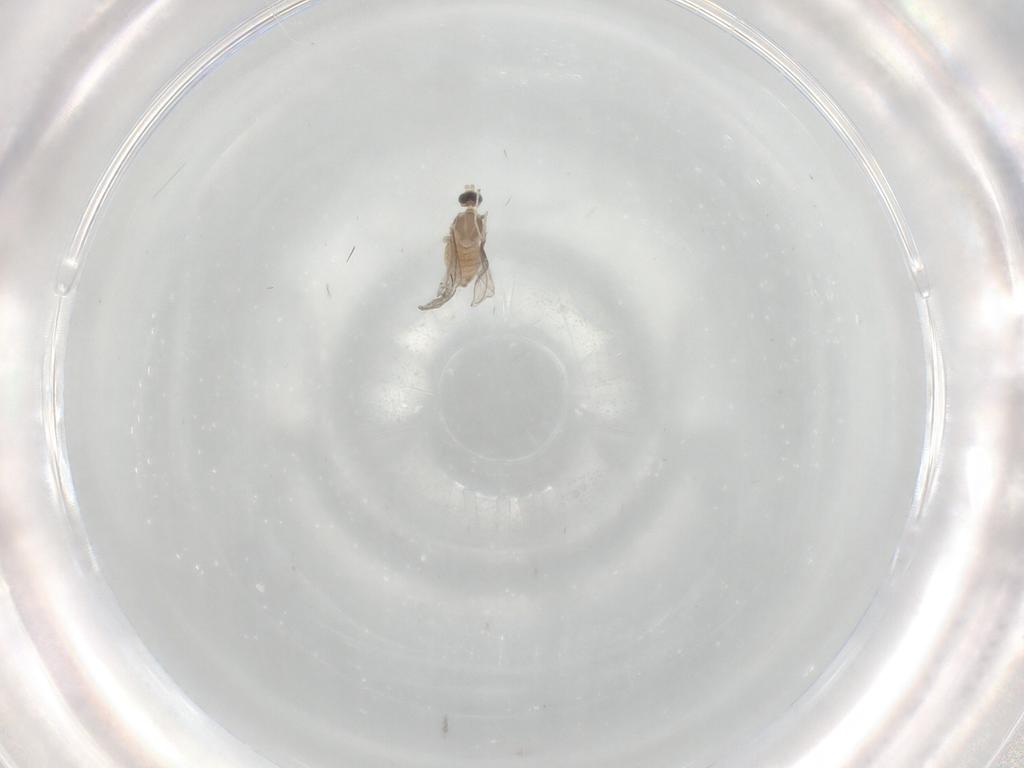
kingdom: Animalia
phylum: Arthropoda
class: Insecta
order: Diptera
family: Cecidomyiidae
